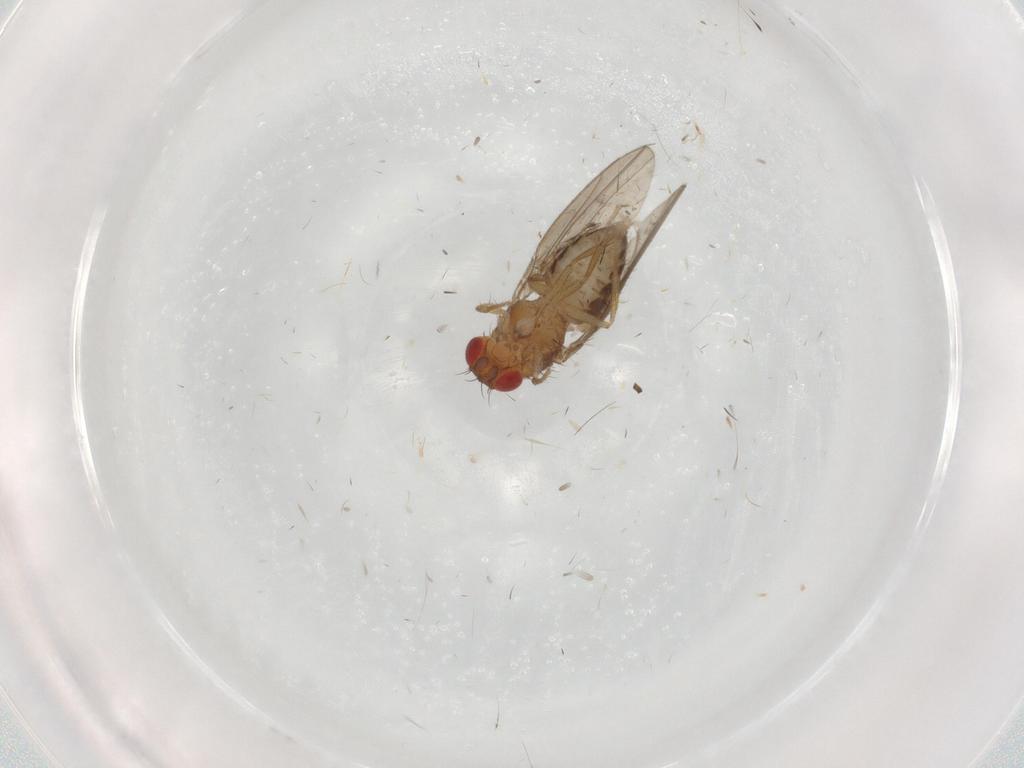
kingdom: Animalia
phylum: Arthropoda
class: Insecta
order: Diptera
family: Drosophilidae
